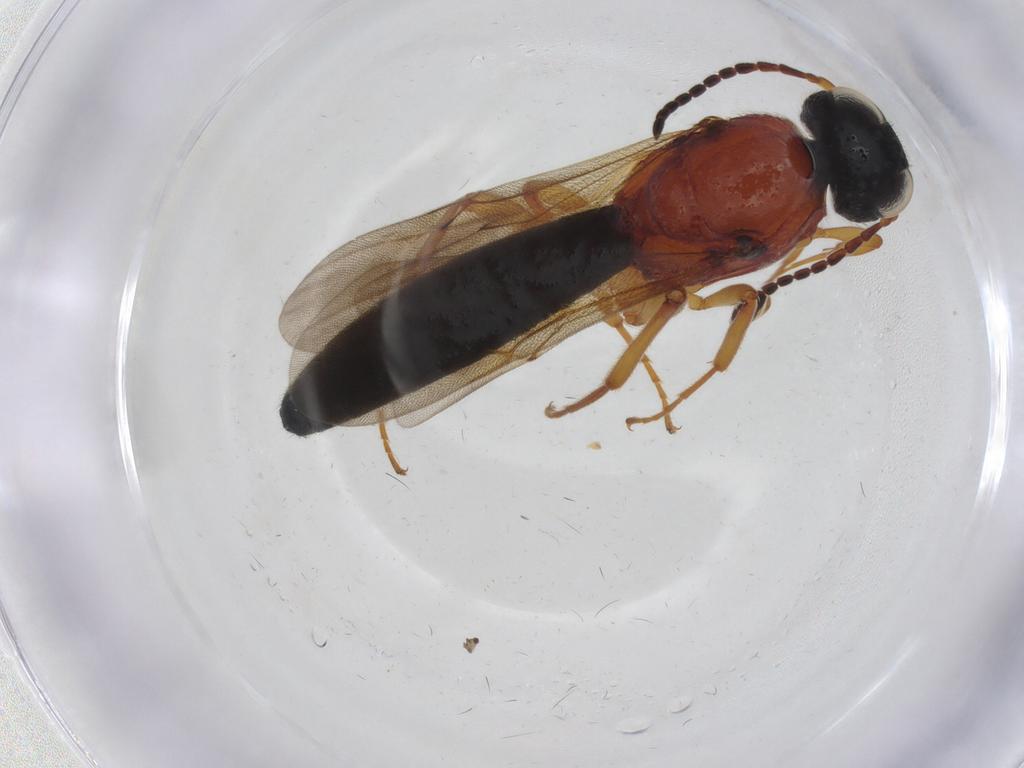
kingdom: Animalia
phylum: Arthropoda
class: Insecta
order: Hymenoptera
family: Scelionidae
